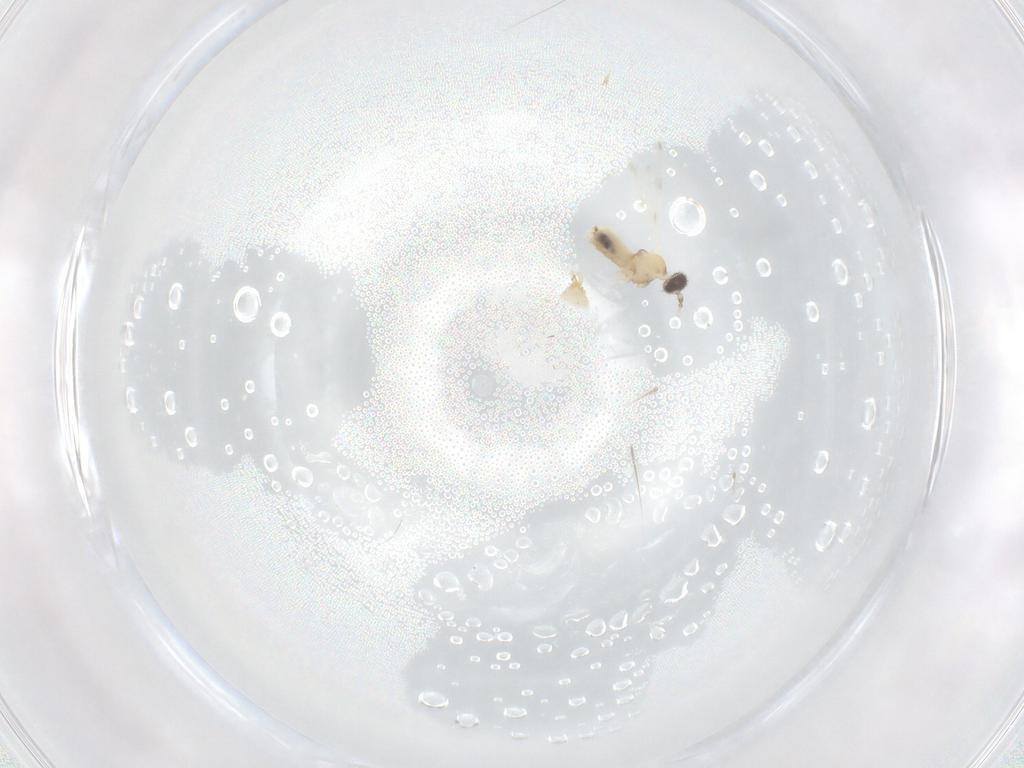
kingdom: Animalia
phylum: Arthropoda
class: Insecta
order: Diptera
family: Cecidomyiidae
